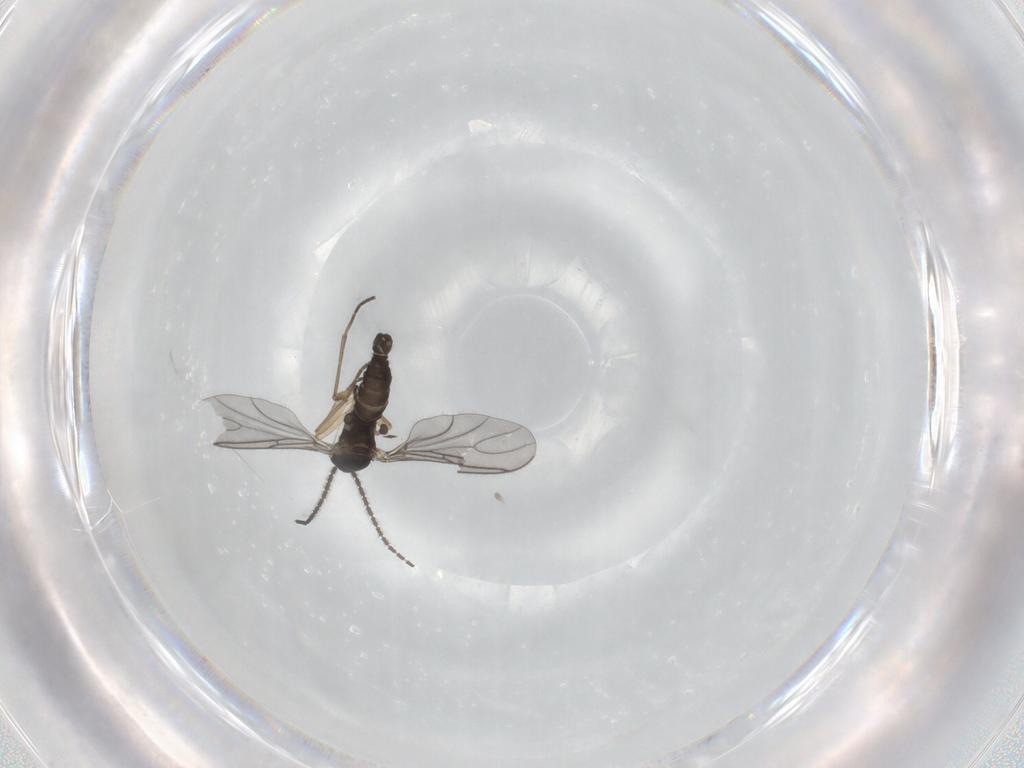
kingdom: Animalia
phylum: Arthropoda
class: Insecta
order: Diptera
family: Sciaridae
